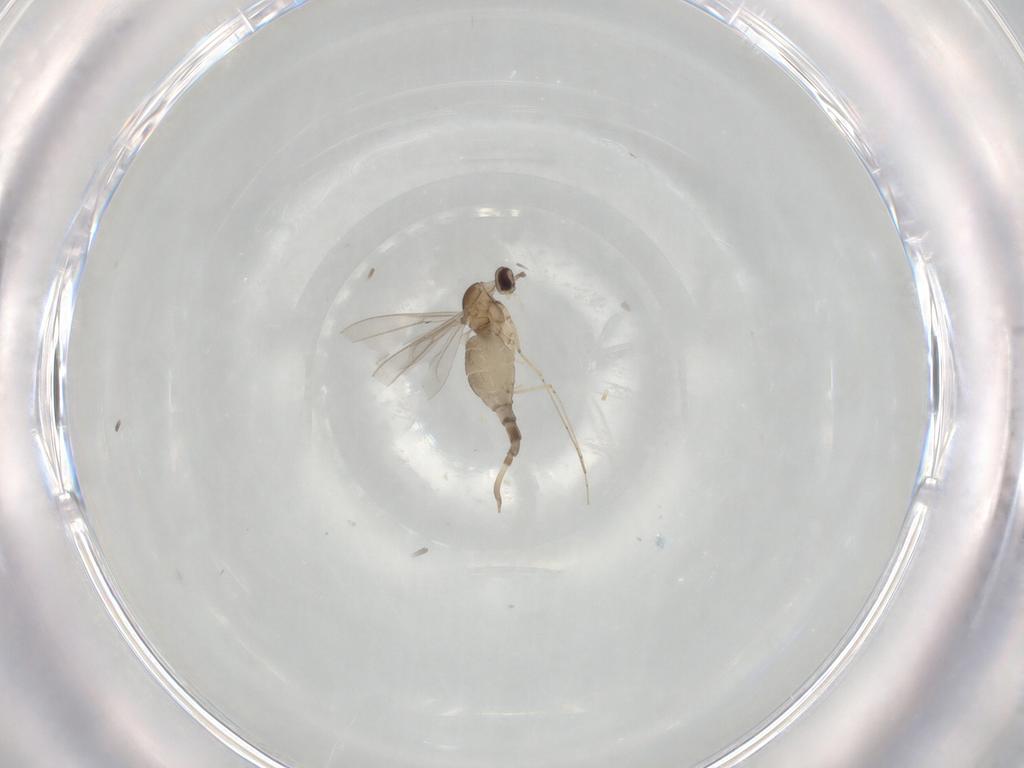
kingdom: Animalia
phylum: Arthropoda
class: Insecta
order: Diptera
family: Cecidomyiidae
